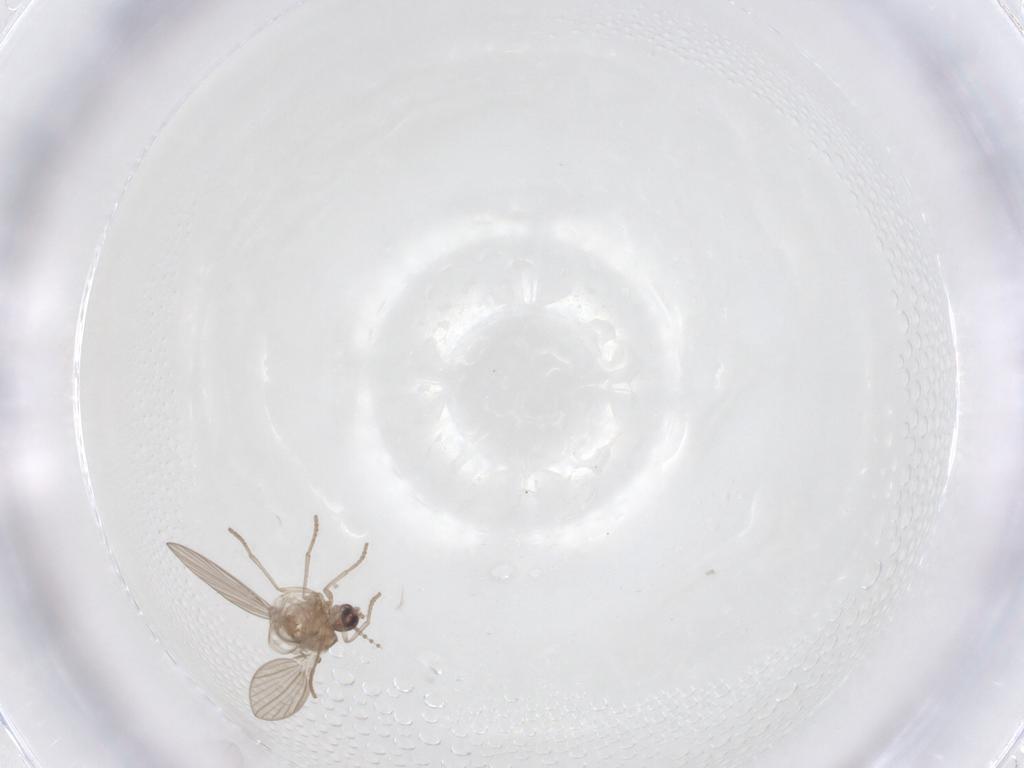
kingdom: Animalia
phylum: Arthropoda
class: Insecta
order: Diptera
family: Psychodidae
